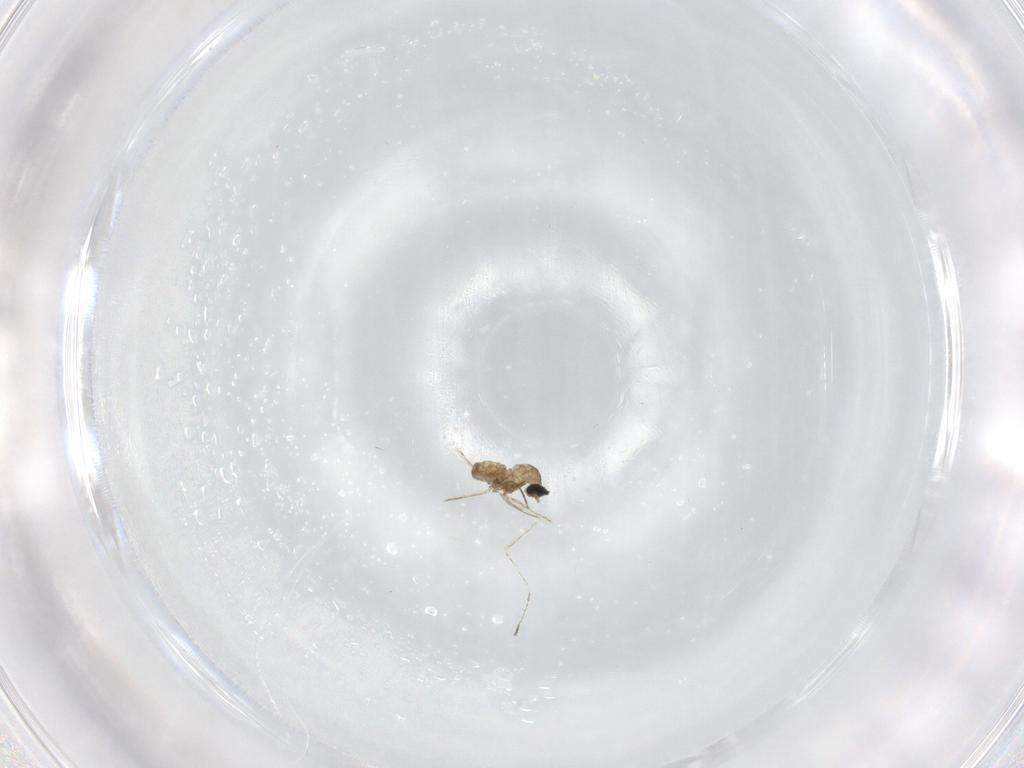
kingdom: Animalia
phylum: Arthropoda
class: Insecta
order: Diptera
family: Cecidomyiidae
